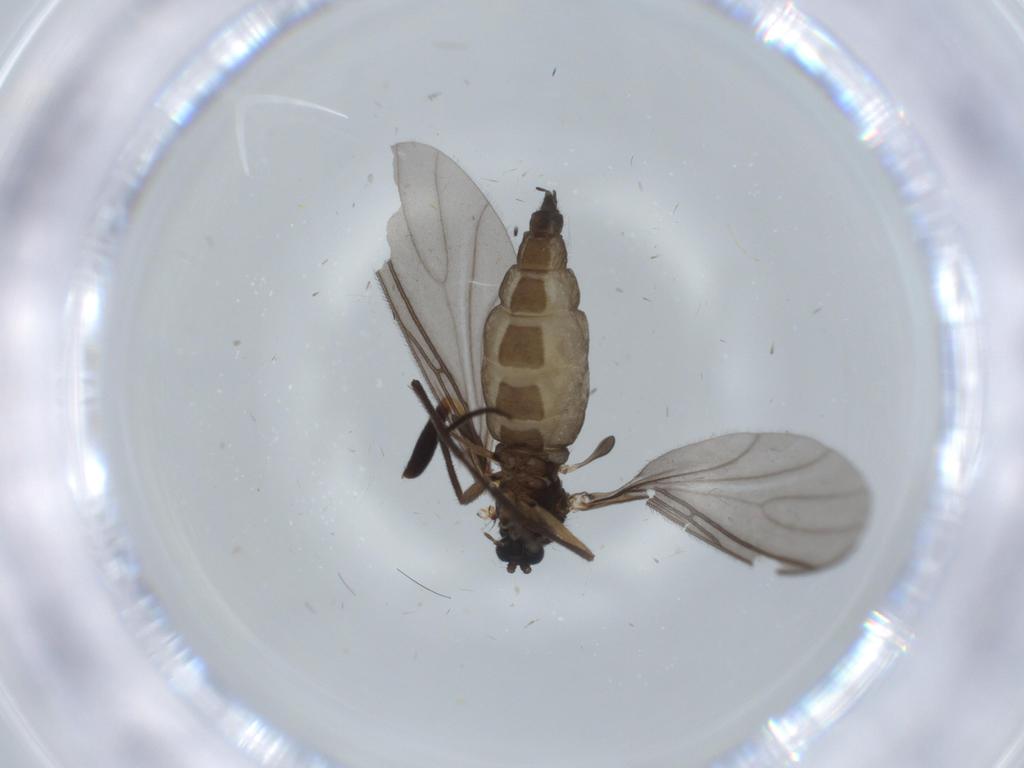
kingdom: Animalia
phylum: Arthropoda
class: Insecta
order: Diptera
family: Sciaridae
